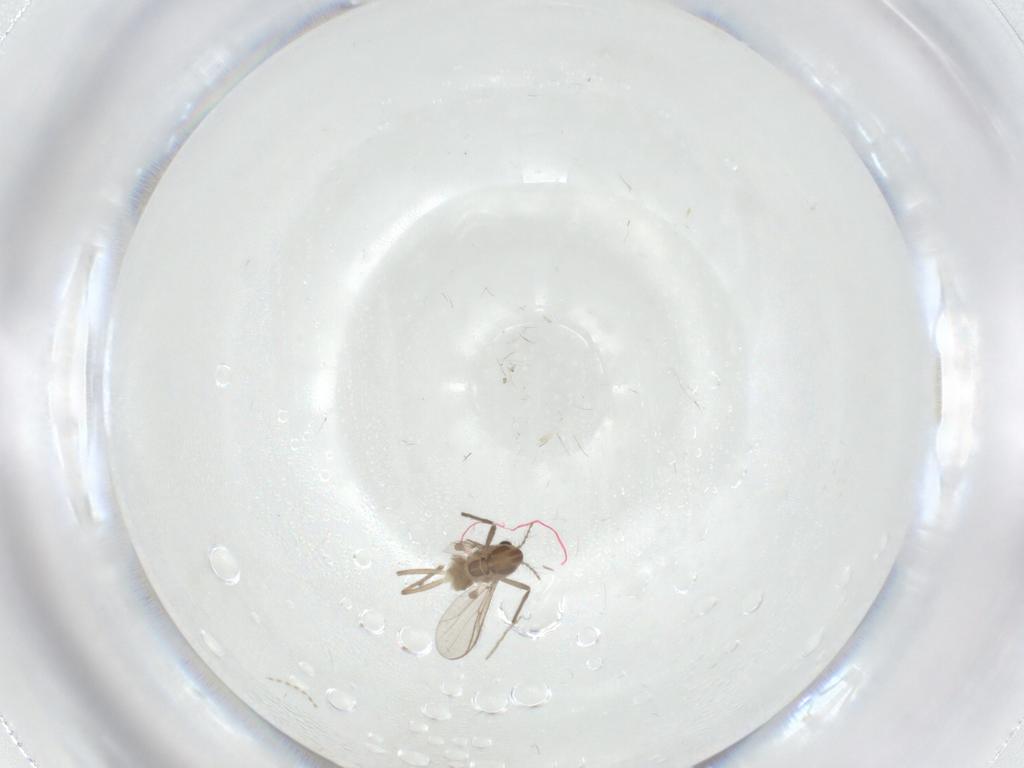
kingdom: Animalia
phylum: Arthropoda
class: Insecta
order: Diptera
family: Chironomidae
